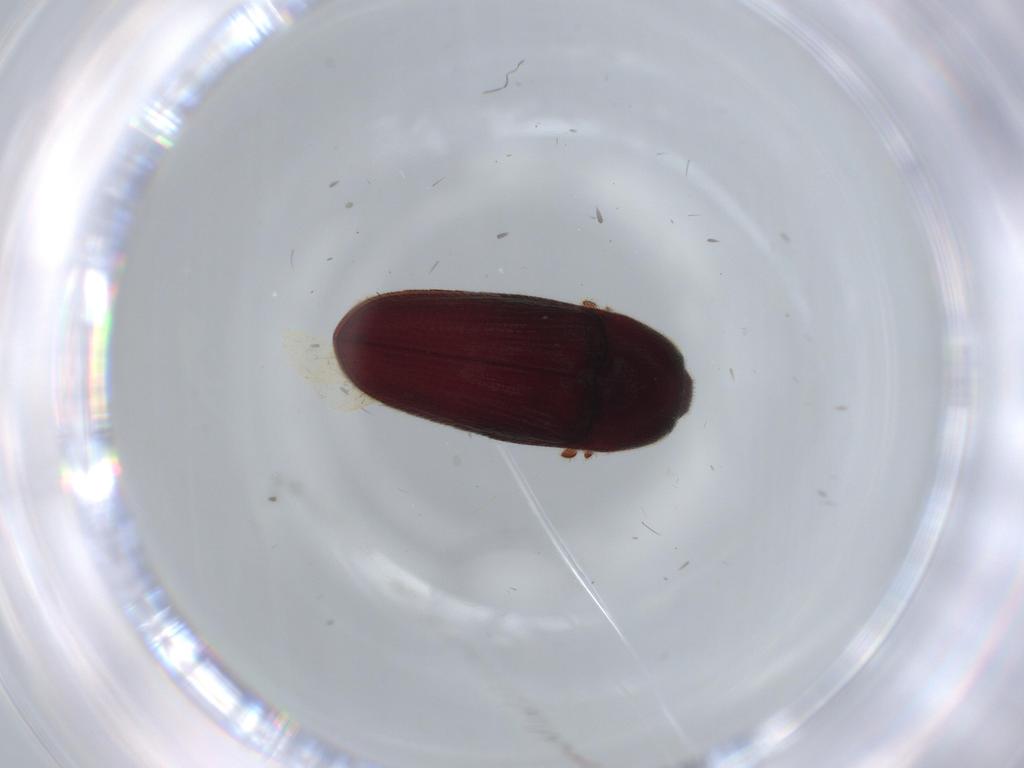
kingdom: Animalia
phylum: Arthropoda
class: Insecta
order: Coleoptera
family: Throscidae
